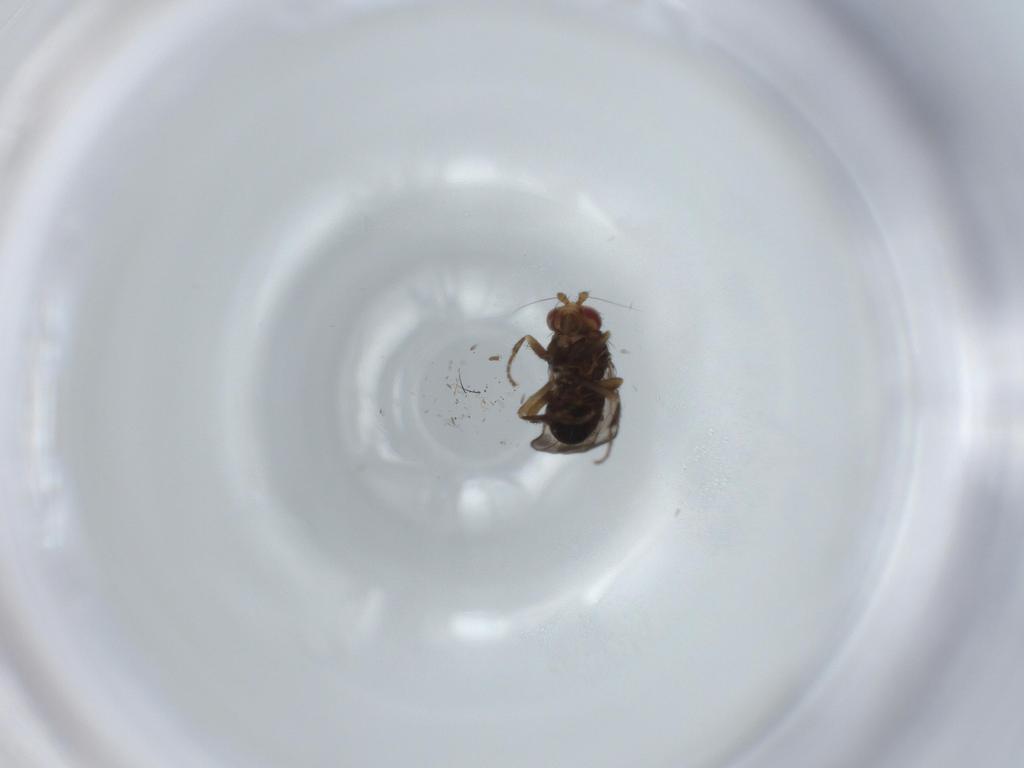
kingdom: Animalia
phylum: Arthropoda
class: Insecta
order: Diptera
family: Sphaeroceridae
